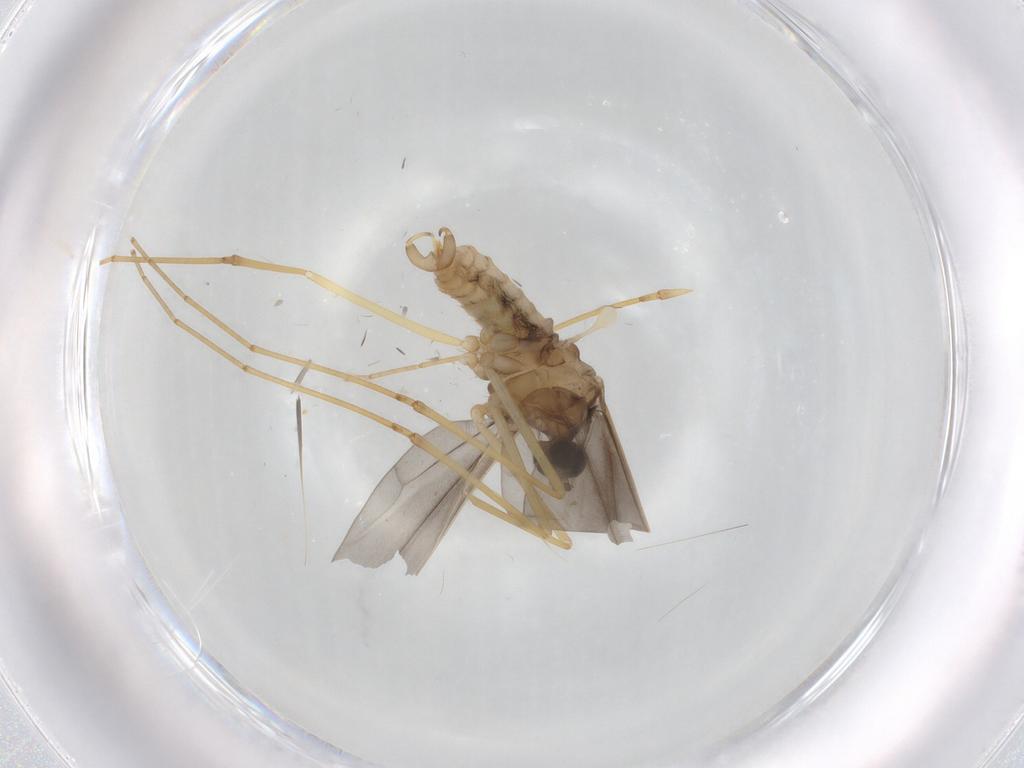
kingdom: Animalia
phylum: Arthropoda
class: Insecta
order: Diptera
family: Cecidomyiidae
